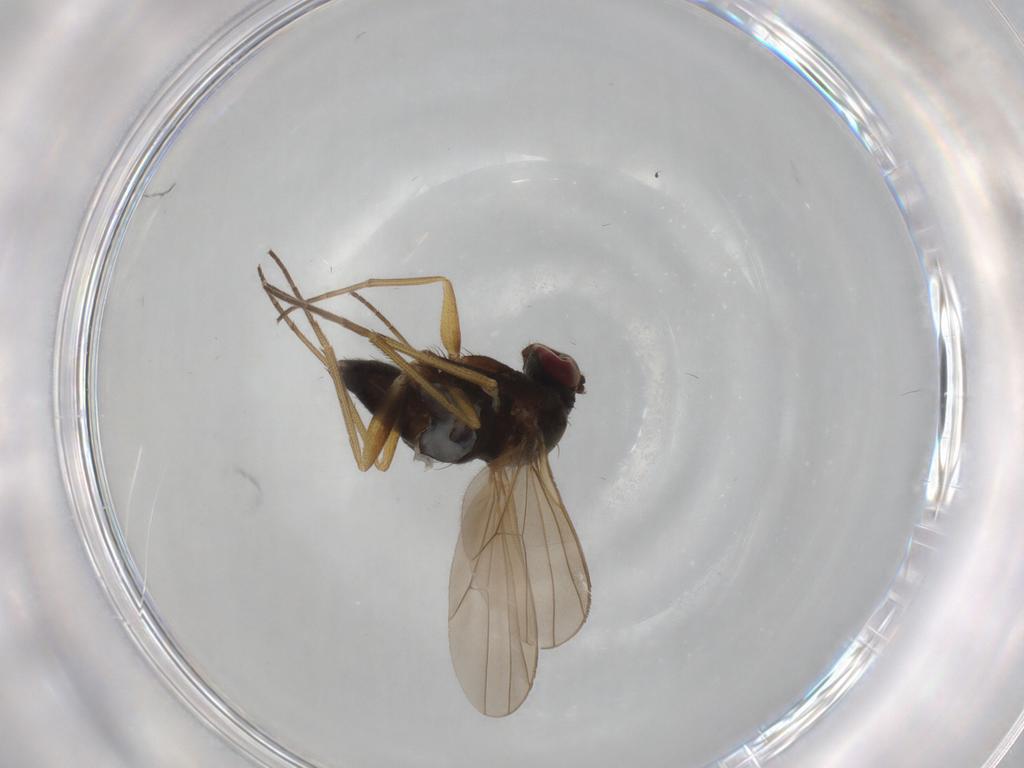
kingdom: Animalia
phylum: Arthropoda
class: Insecta
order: Diptera
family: Dolichopodidae
